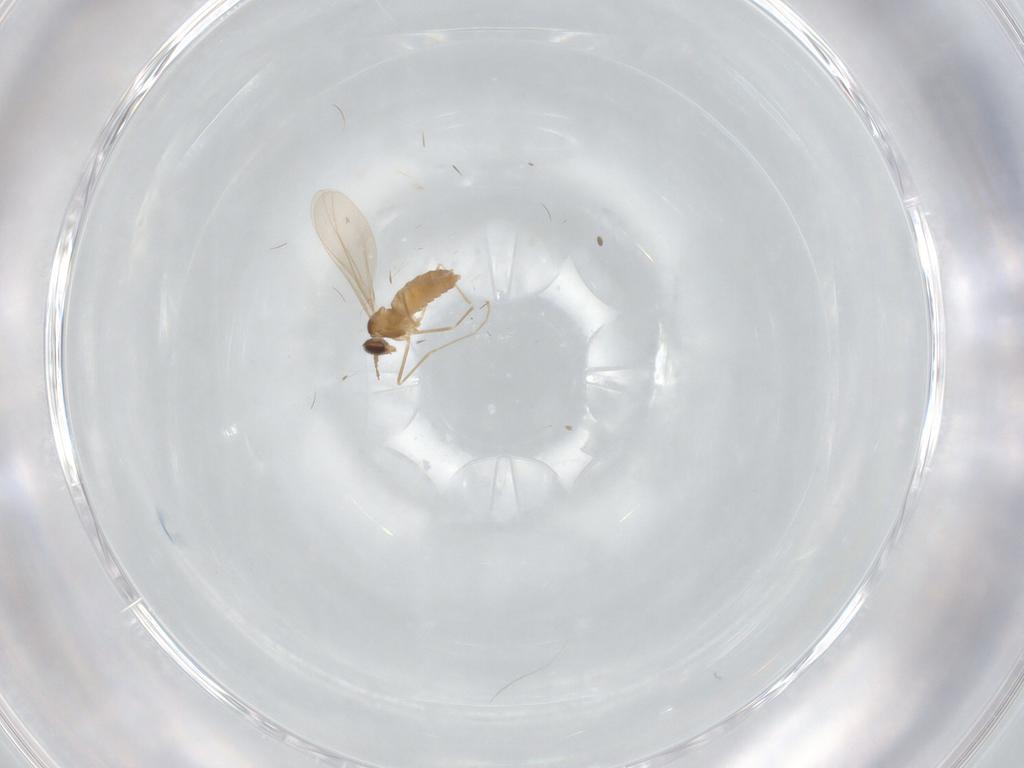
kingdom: Animalia
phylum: Arthropoda
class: Insecta
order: Diptera
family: Cecidomyiidae
